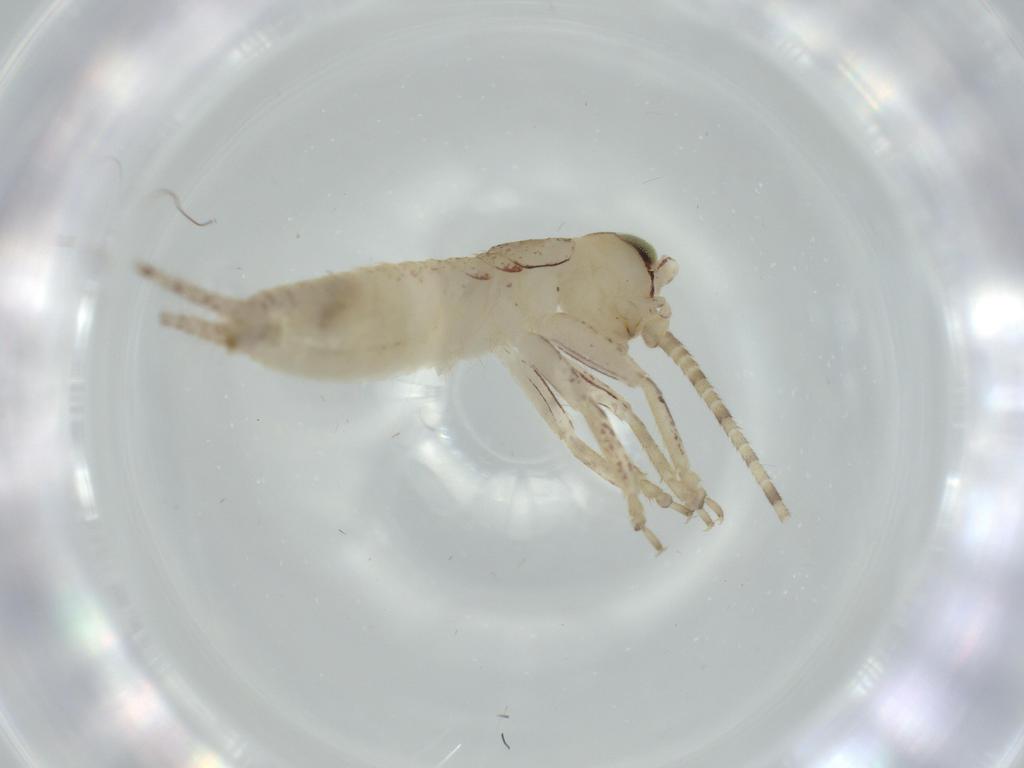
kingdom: Animalia
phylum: Arthropoda
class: Insecta
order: Orthoptera
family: Gryllidae
